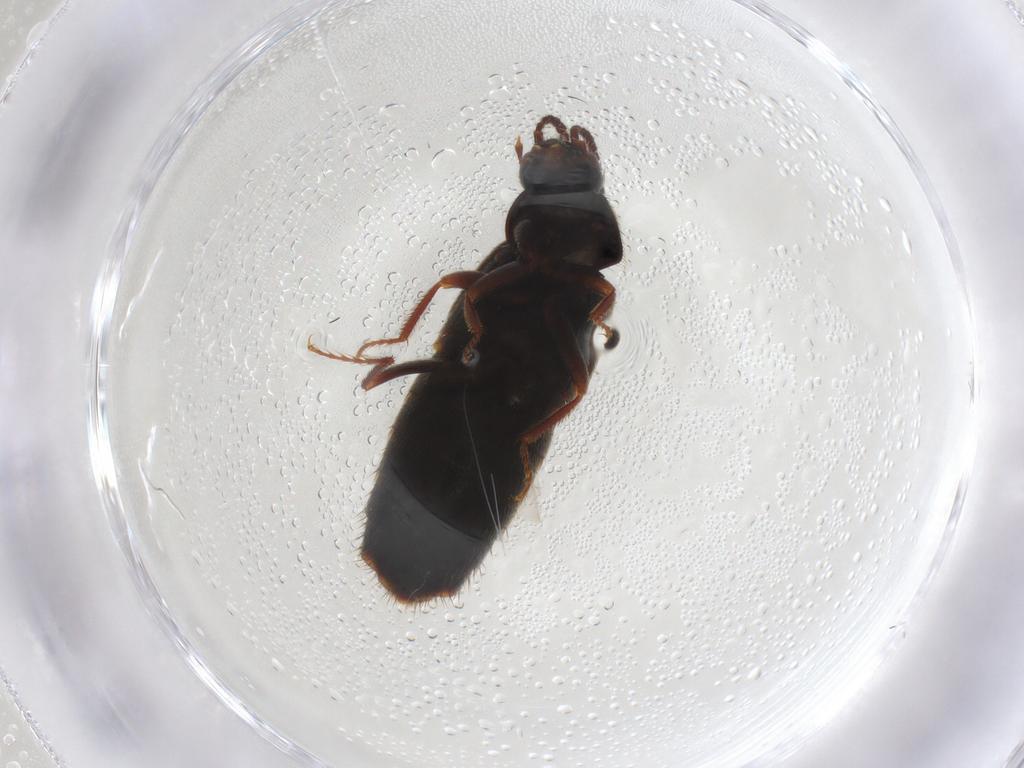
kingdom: Animalia
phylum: Arthropoda
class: Insecta
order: Coleoptera
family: Staphylinidae
